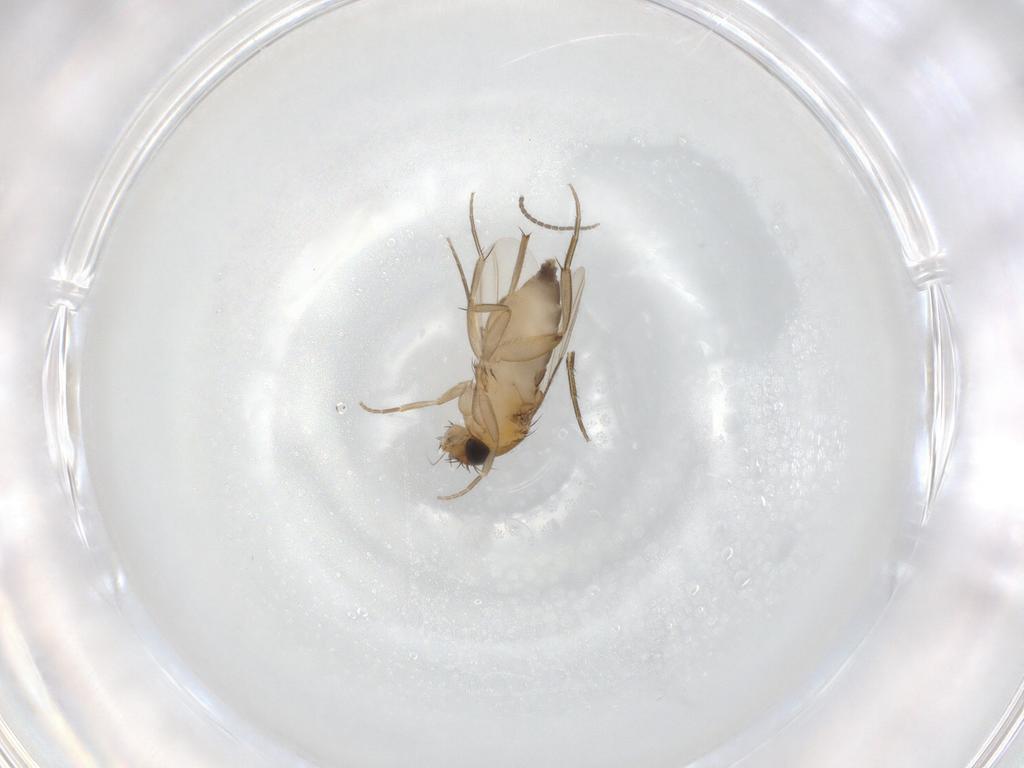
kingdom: Animalia
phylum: Arthropoda
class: Insecta
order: Diptera
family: Phoridae
